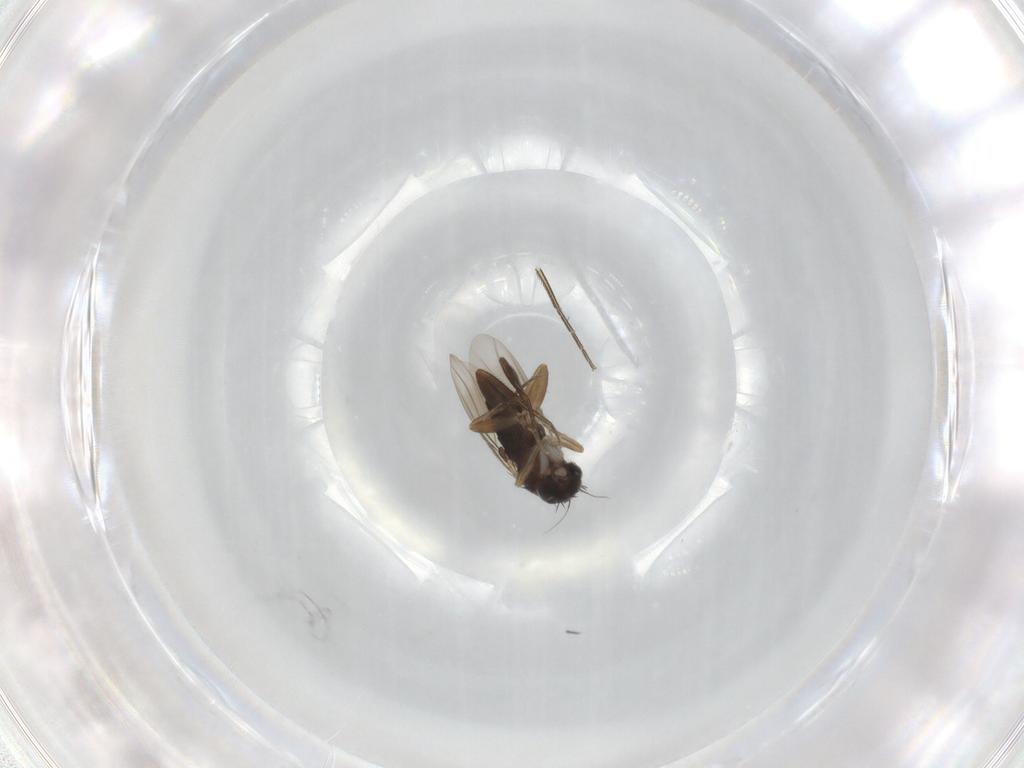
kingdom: Animalia
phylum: Arthropoda
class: Insecta
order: Diptera
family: Phoridae
